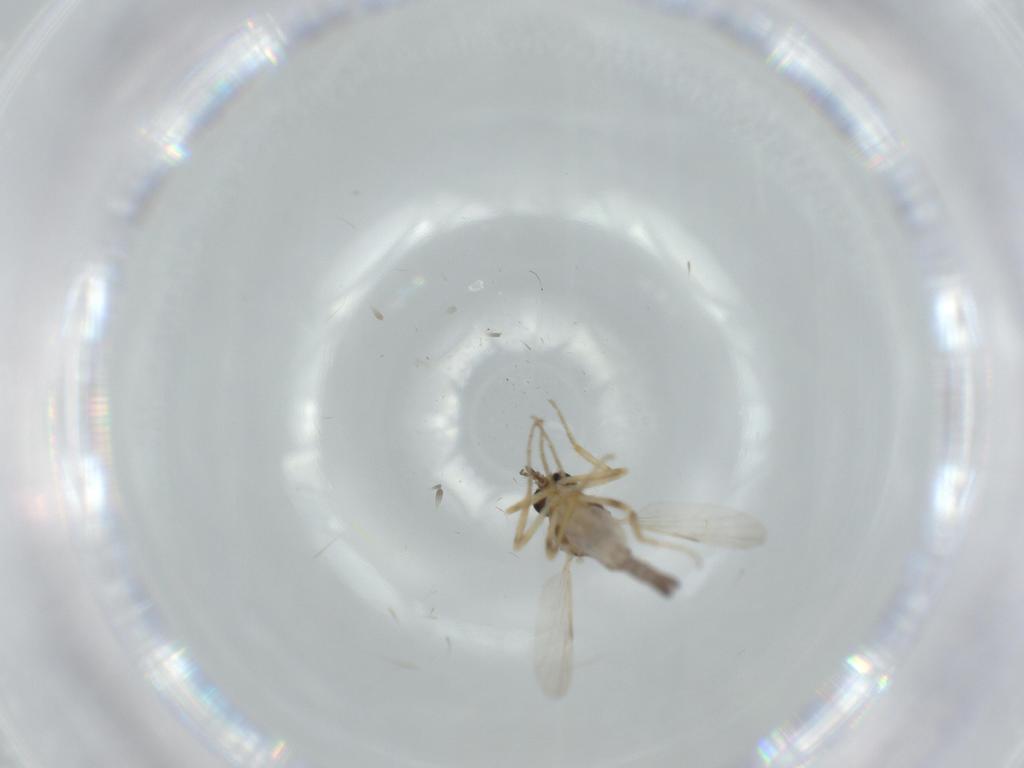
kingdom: Animalia
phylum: Arthropoda
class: Insecta
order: Diptera
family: Ceratopogonidae
